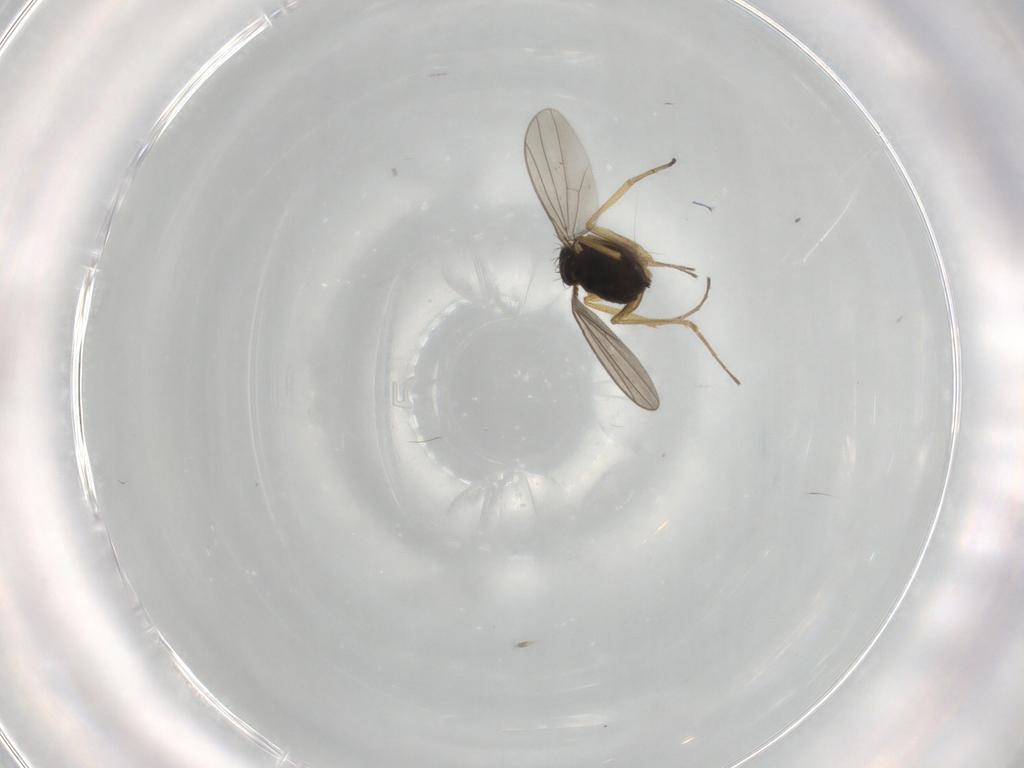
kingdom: Animalia
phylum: Arthropoda
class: Insecta
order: Diptera
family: Dolichopodidae
